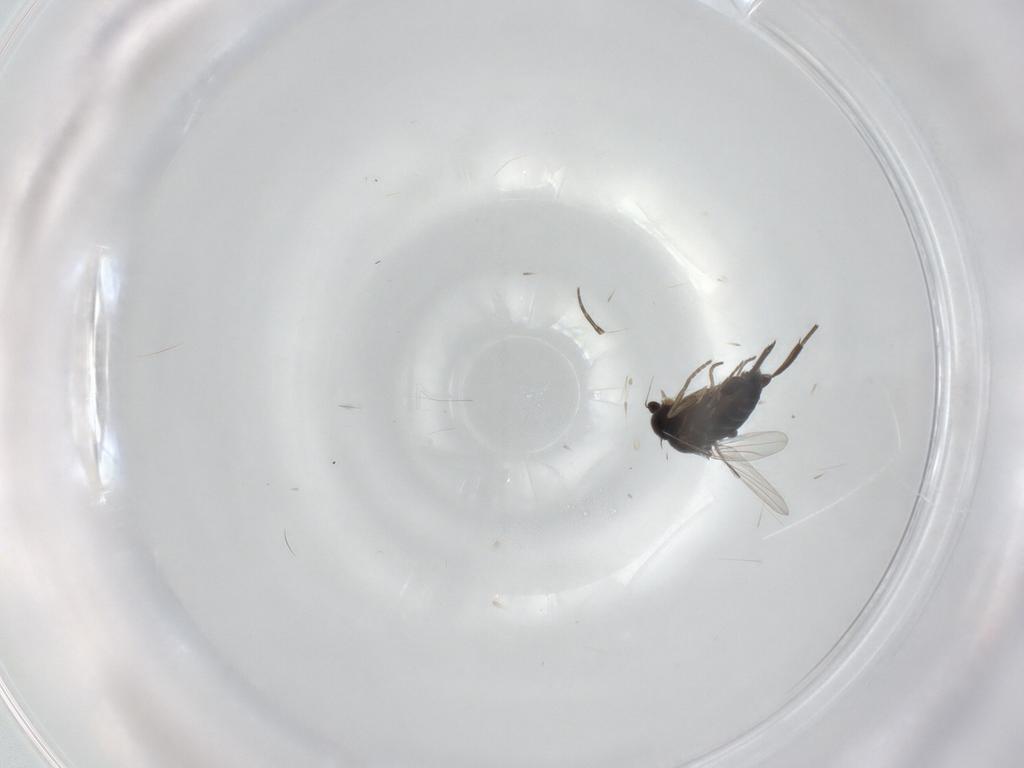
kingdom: Animalia
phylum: Arthropoda
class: Insecta
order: Diptera
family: Phoridae
